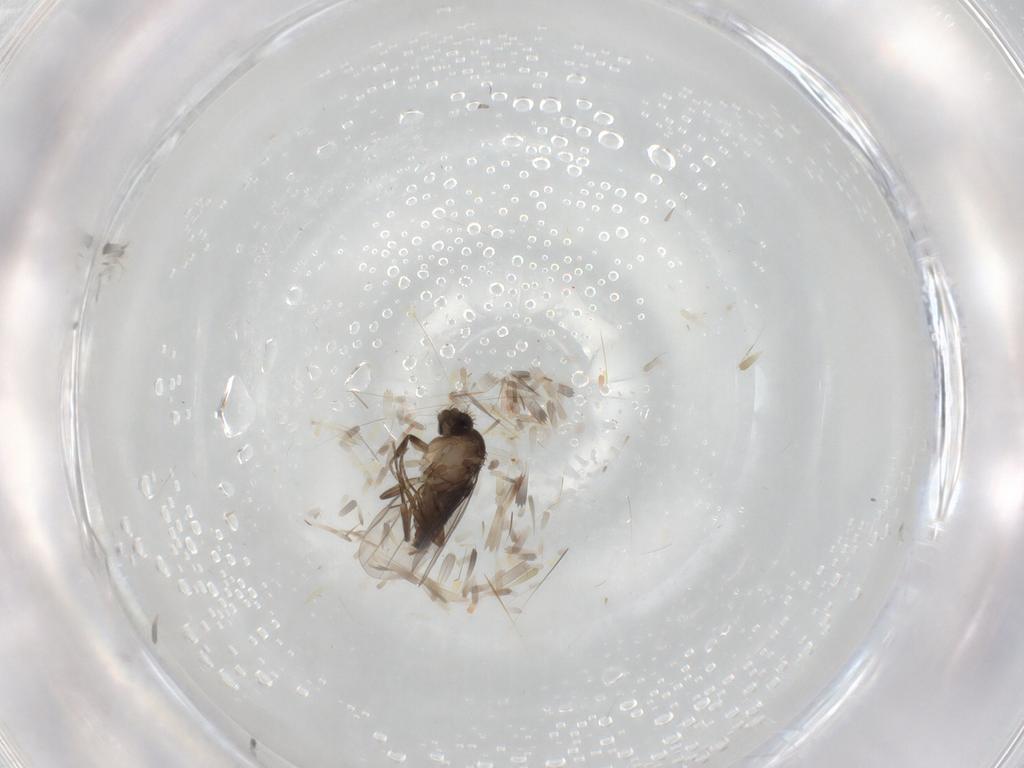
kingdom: Animalia
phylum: Arthropoda
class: Insecta
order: Diptera
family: Phoridae
